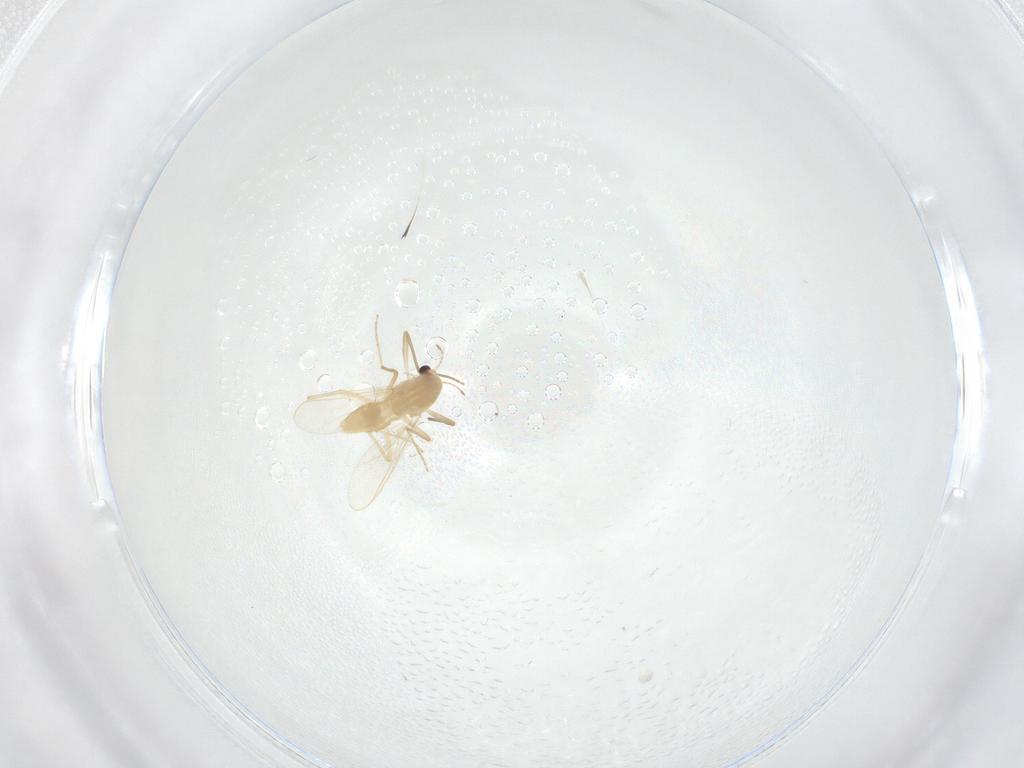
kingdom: Animalia
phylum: Arthropoda
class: Insecta
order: Diptera
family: Chironomidae
